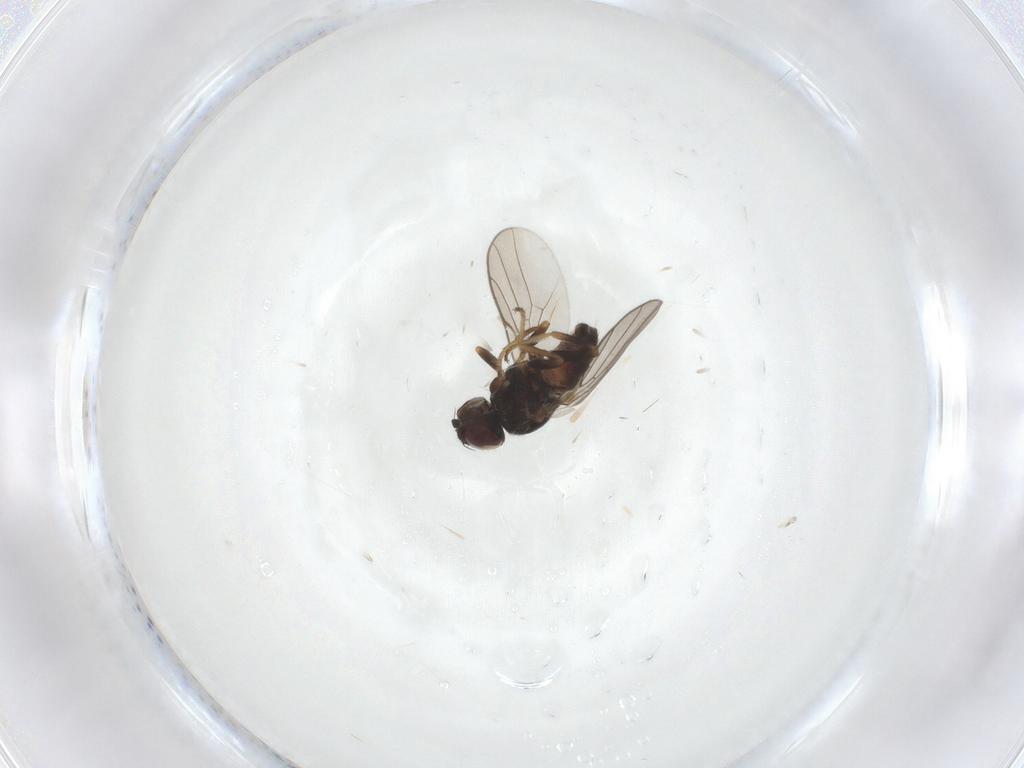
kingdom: Animalia
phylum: Arthropoda
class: Insecta
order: Diptera
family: Chloropidae
